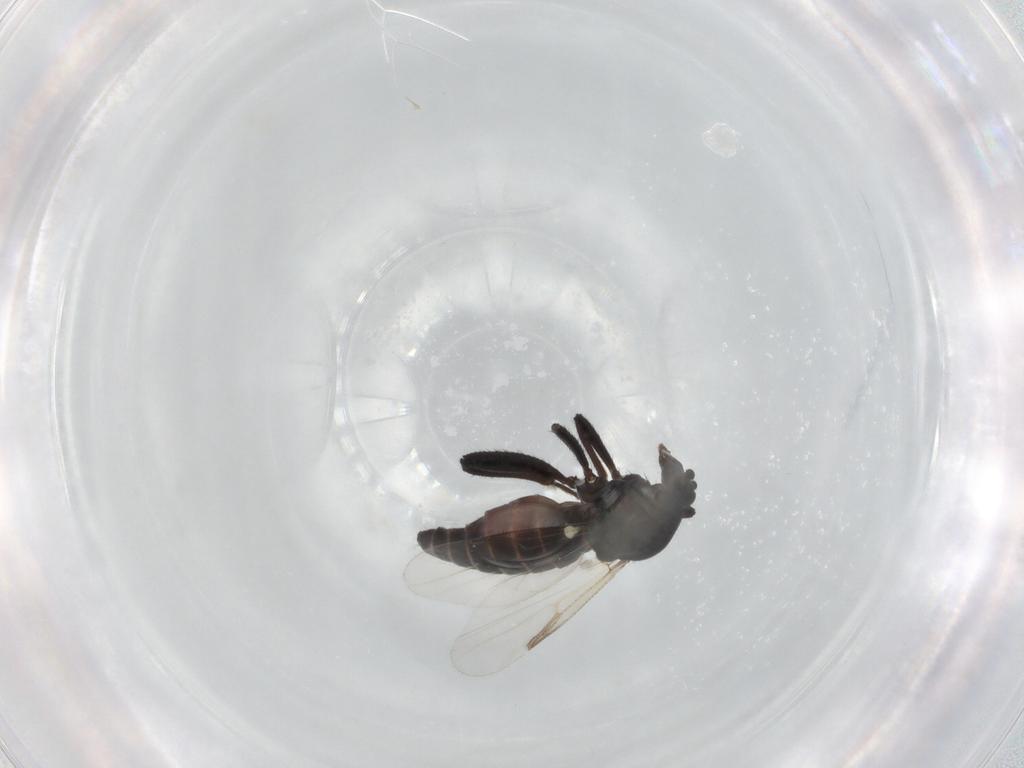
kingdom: Animalia
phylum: Arthropoda
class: Insecta
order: Diptera
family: Ceratopogonidae
